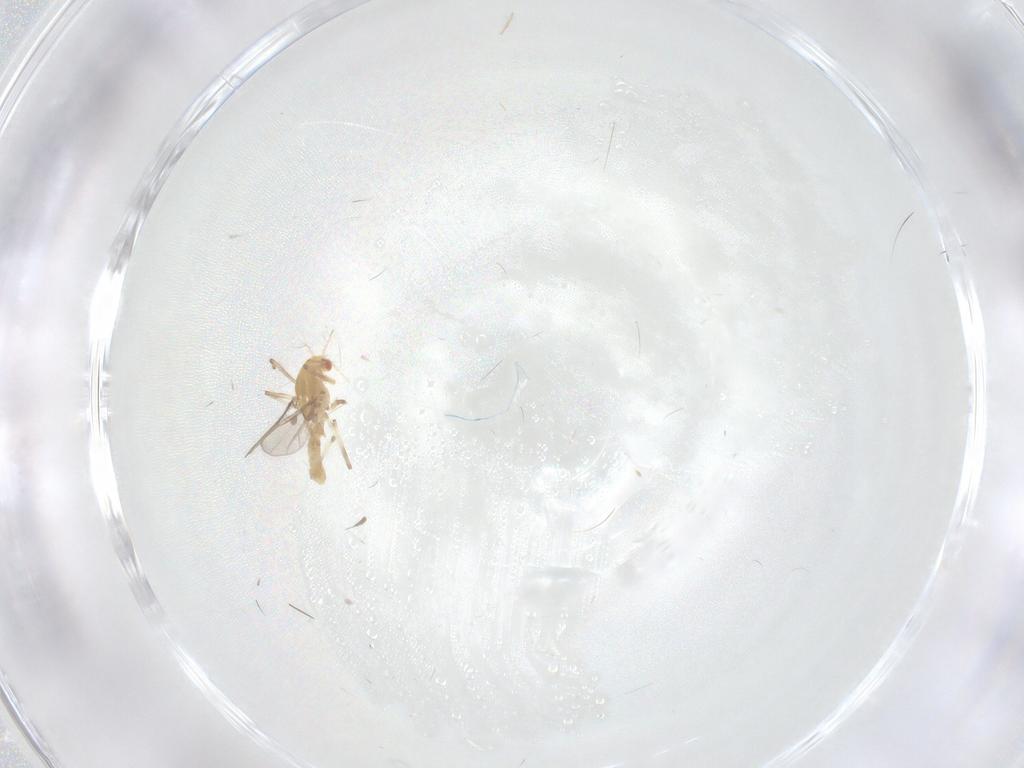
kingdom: Animalia
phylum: Arthropoda
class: Insecta
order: Diptera
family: Chironomidae
